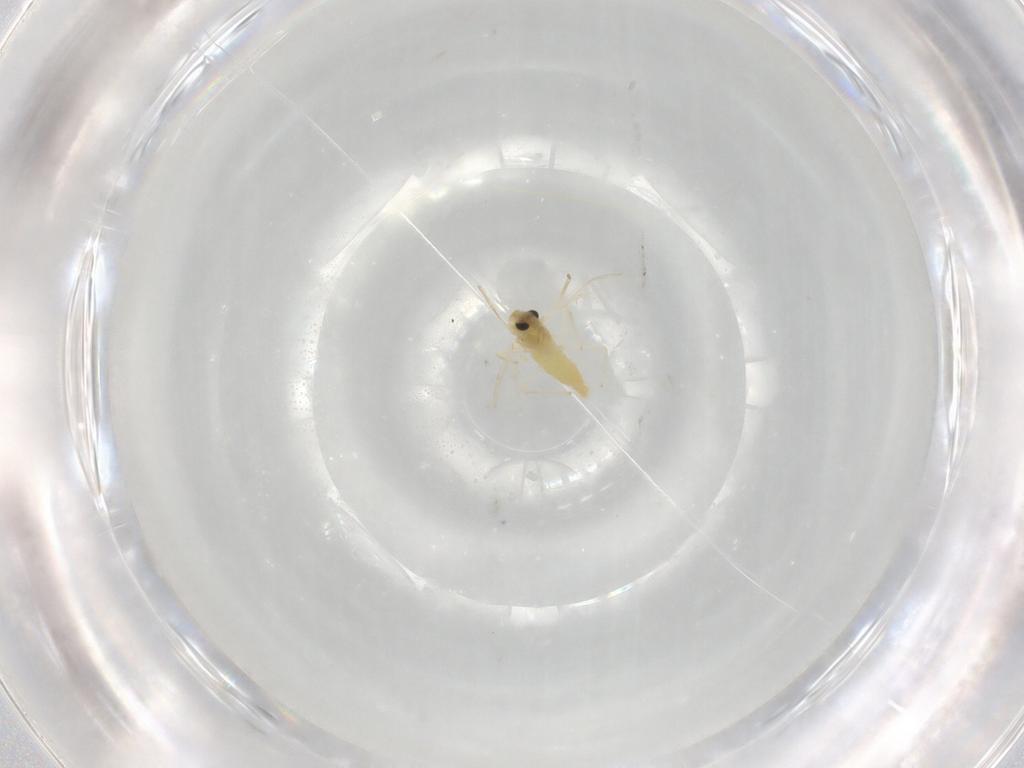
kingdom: Animalia
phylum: Arthropoda
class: Insecta
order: Diptera
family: Chironomidae
